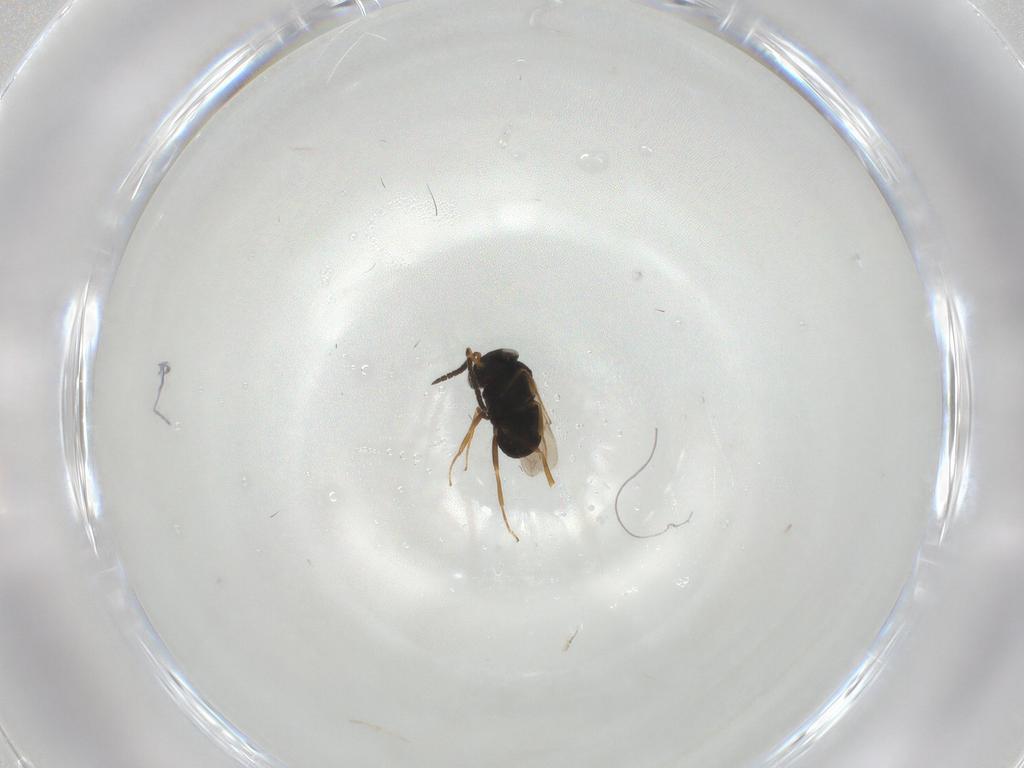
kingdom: Animalia
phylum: Arthropoda
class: Insecta
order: Hymenoptera
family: Scelionidae
